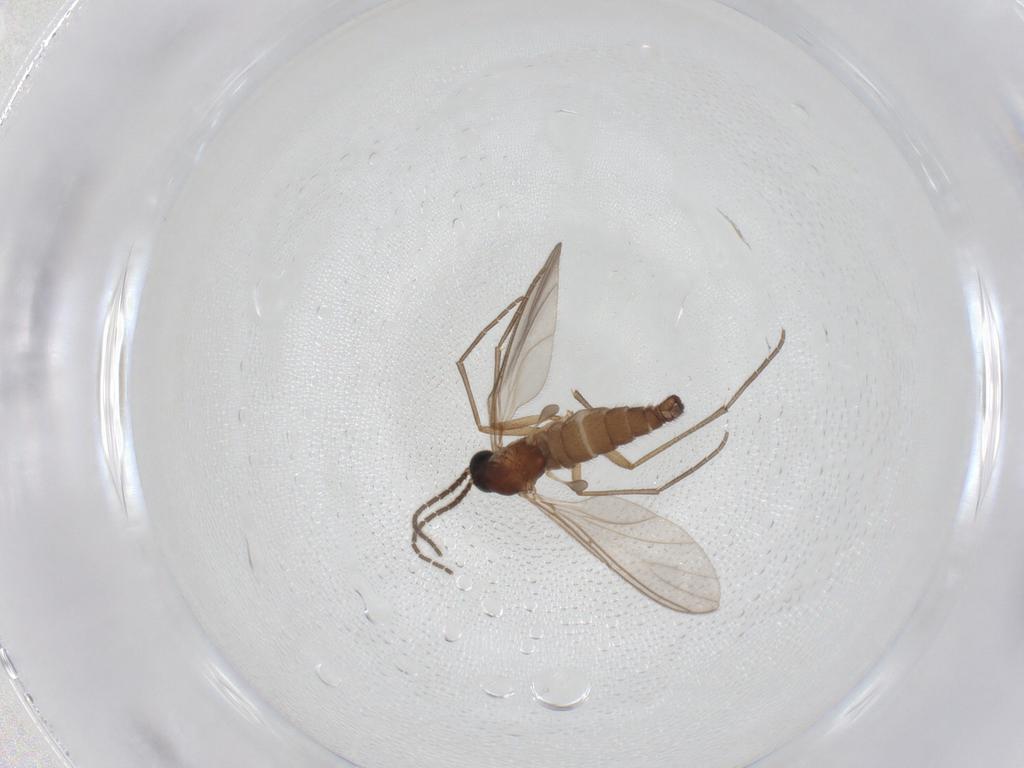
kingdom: Animalia
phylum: Arthropoda
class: Insecta
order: Diptera
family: Sciaridae
